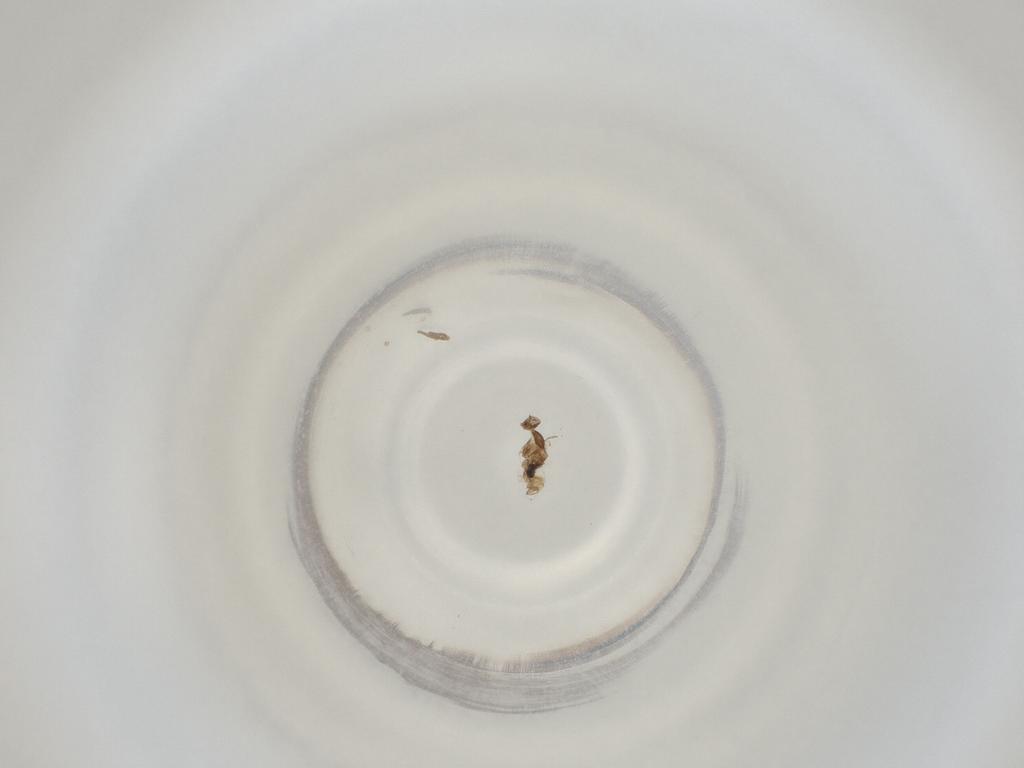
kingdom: Animalia
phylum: Arthropoda
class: Insecta
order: Diptera
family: Cecidomyiidae
